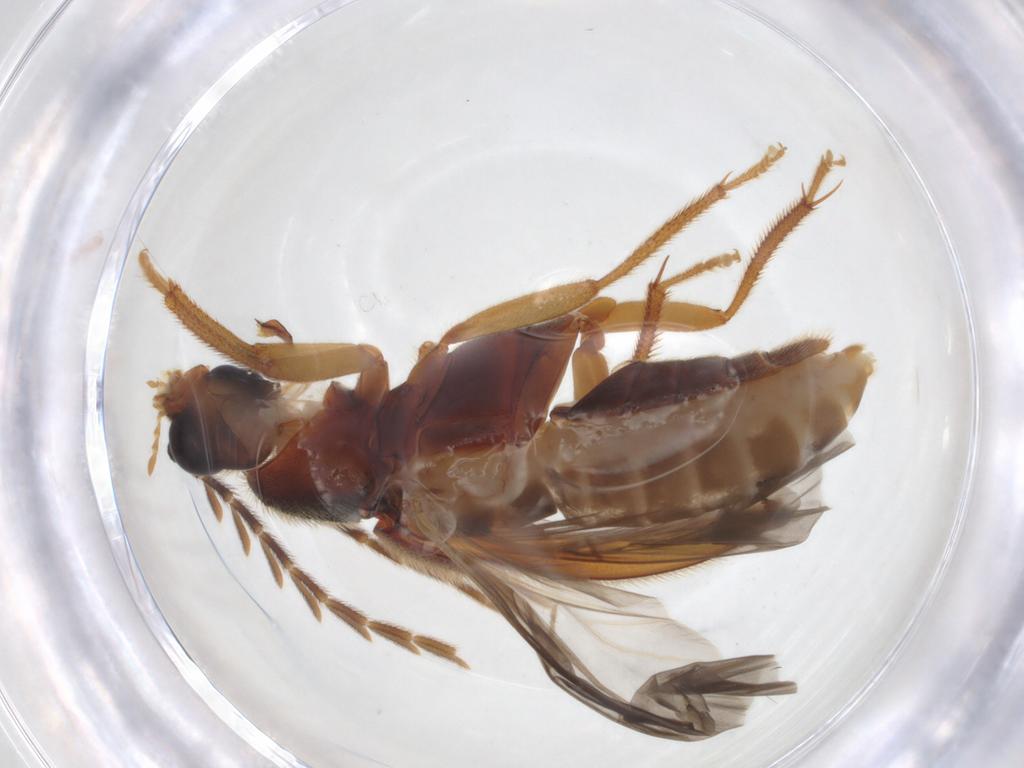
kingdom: Animalia
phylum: Arthropoda
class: Insecta
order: Coleoptera
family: Ptilodactylidae
